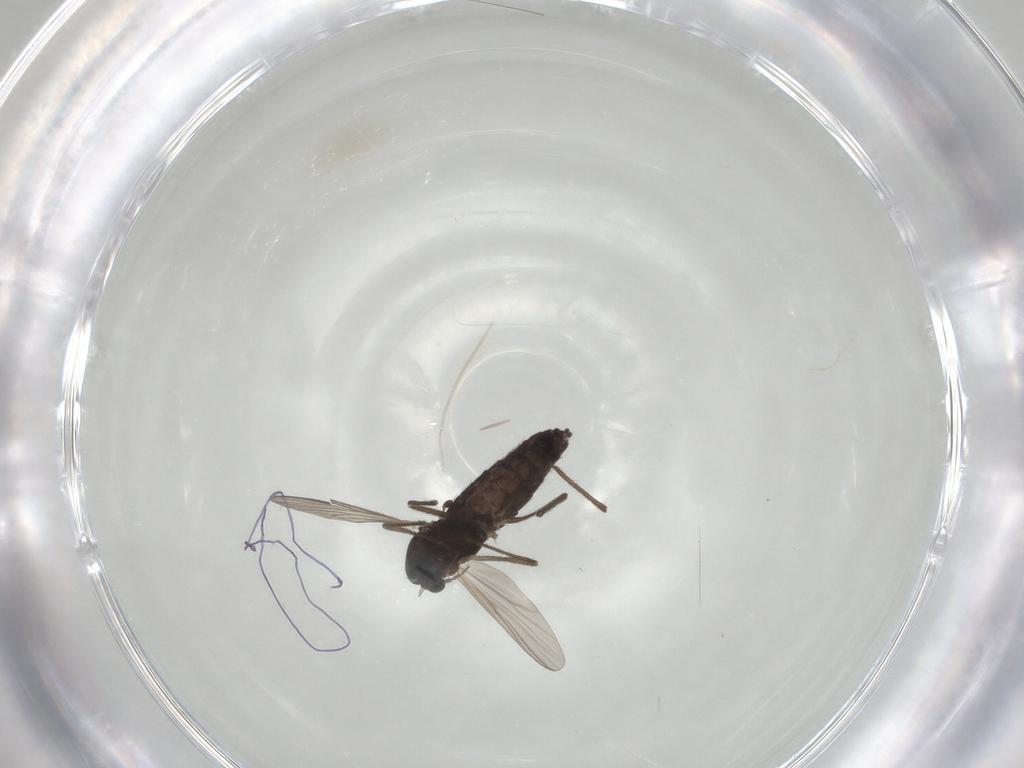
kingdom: Animalia
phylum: Arthropoda
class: Insecta
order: Diptera
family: Chironomidae
